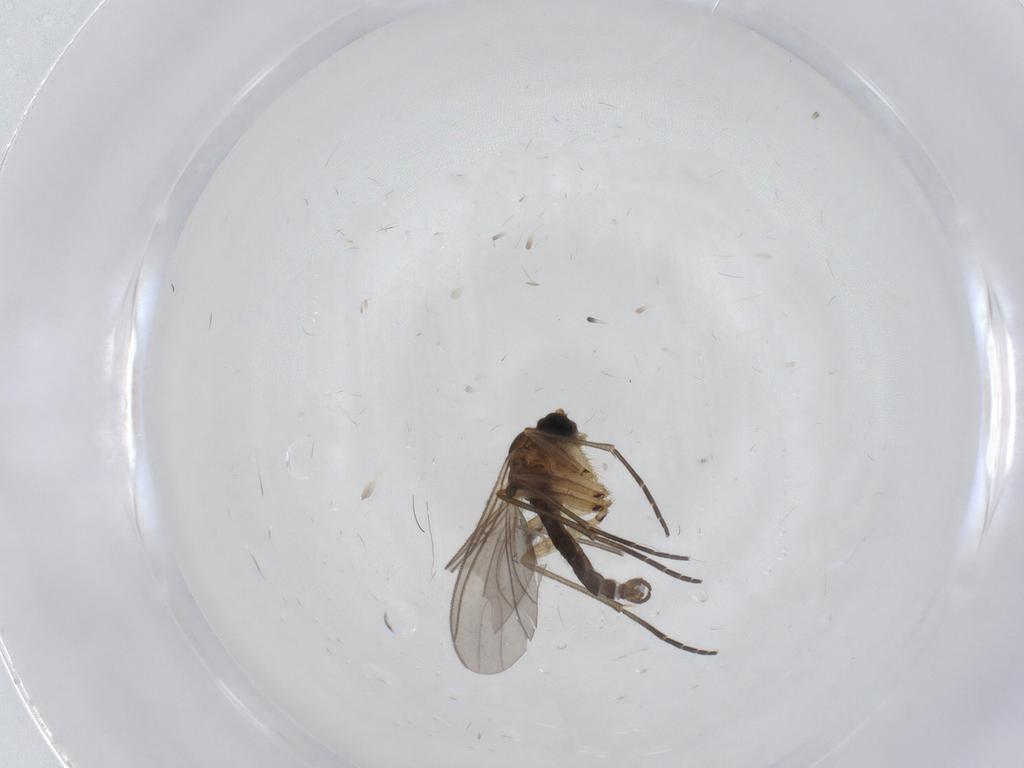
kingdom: Animalia
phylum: Arthropoda
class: Insecta
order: Diptera
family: Sciaridae
